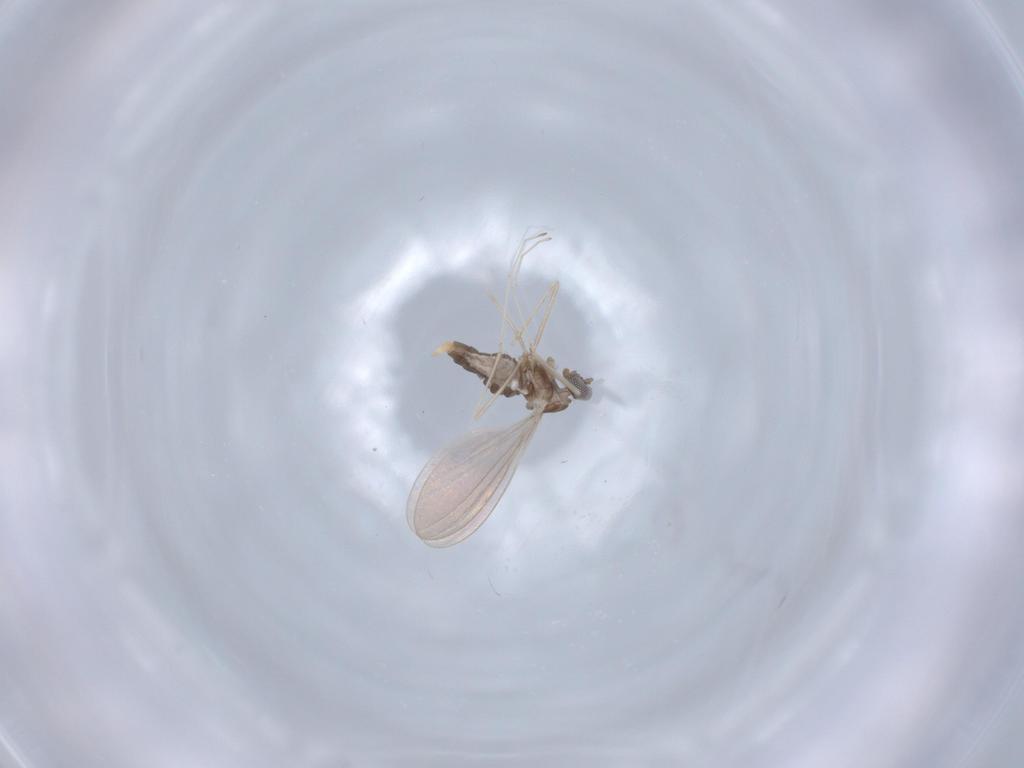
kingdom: Animalia
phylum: Arthropoda
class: Insecta
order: Diptera
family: Cecidomyiidae
